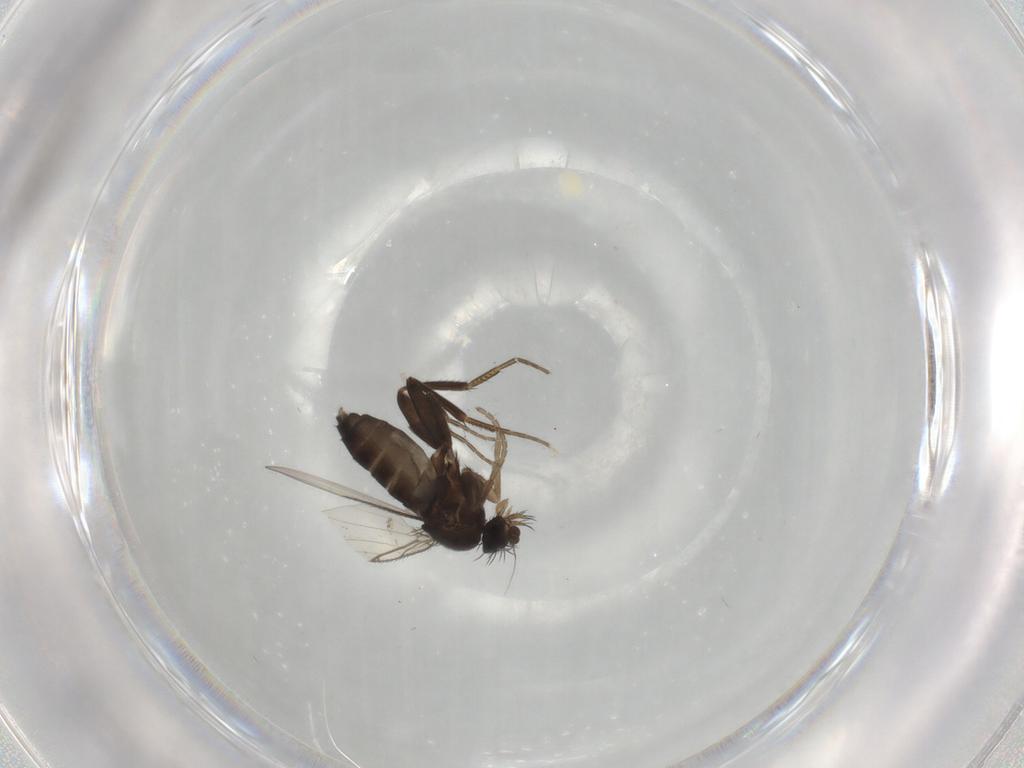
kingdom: Animalia
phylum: Arthropoda
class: Insecta
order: Diptera
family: Phoridae
